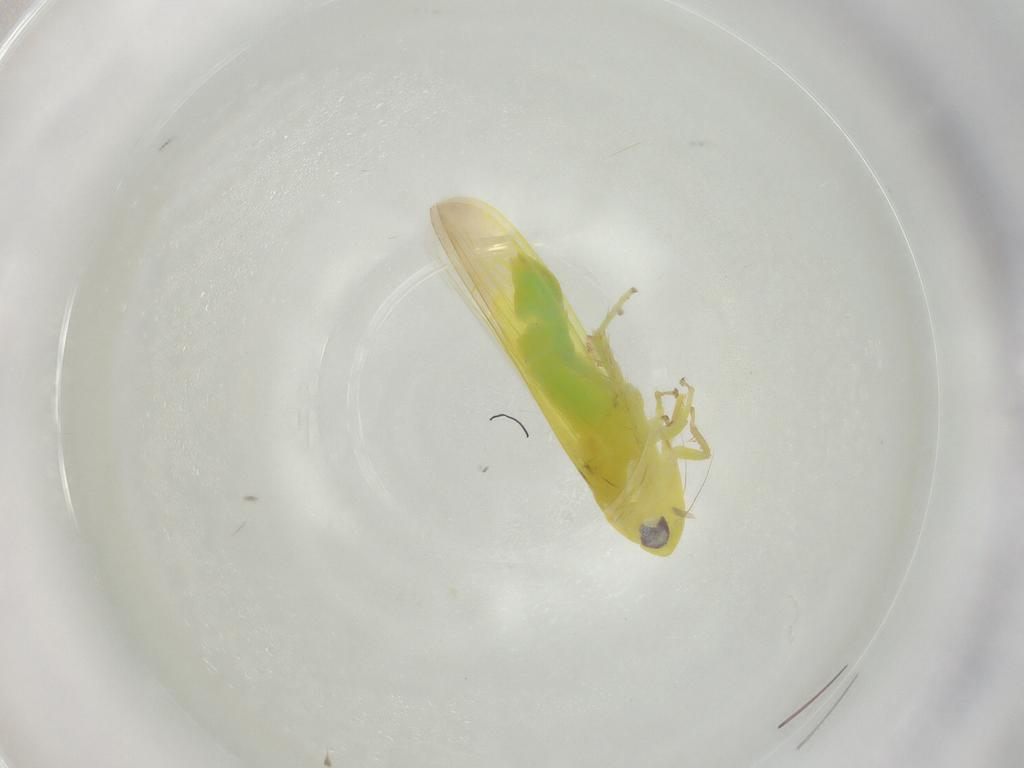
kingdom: Animalia
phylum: Arthropoda
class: Insecta
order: Hemiptera
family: Cicadellidae
